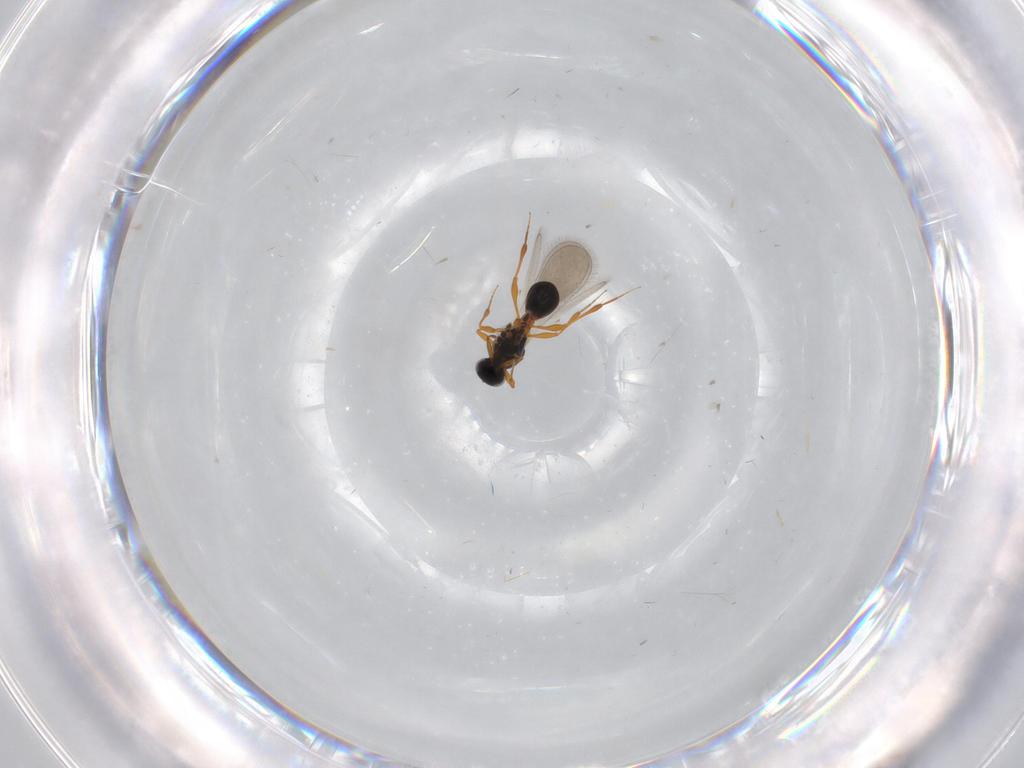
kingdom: Animalia
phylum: Arthropoda
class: Insecta
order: Hymenoptera
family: Platygastridae
